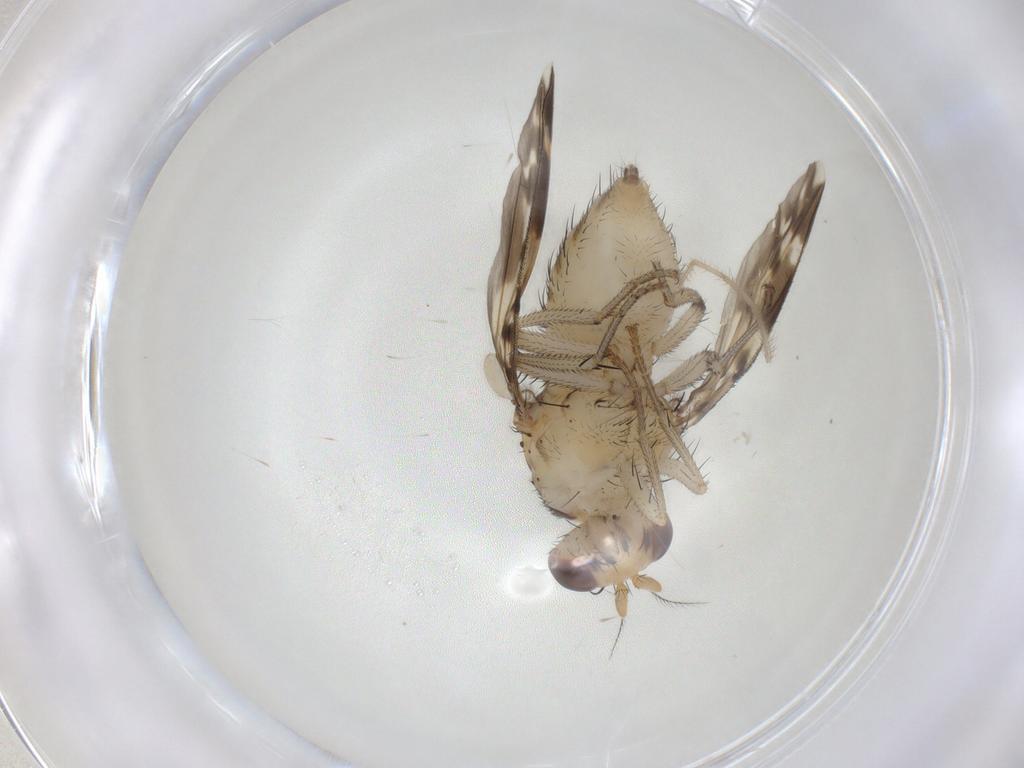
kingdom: Animalia
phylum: Arthropoda
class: Insecta
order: Psocodea
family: Amphipsocidae
